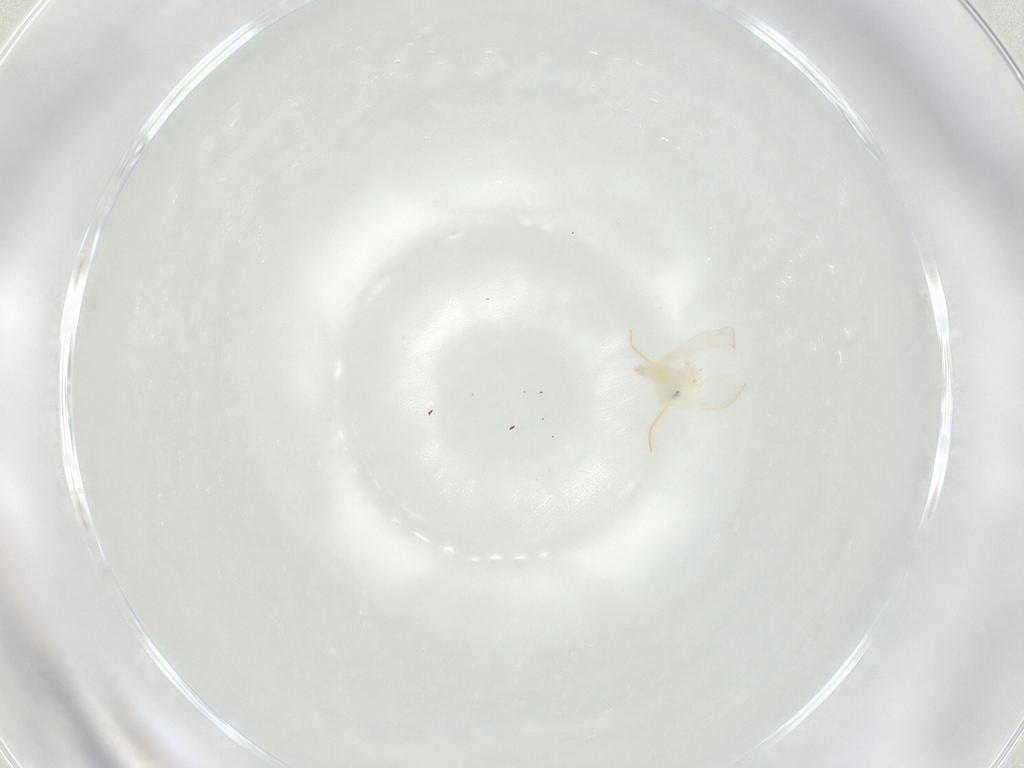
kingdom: Animalia
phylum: Arthropoda
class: Insecta
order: Hemiptera
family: Aleyrodidae
